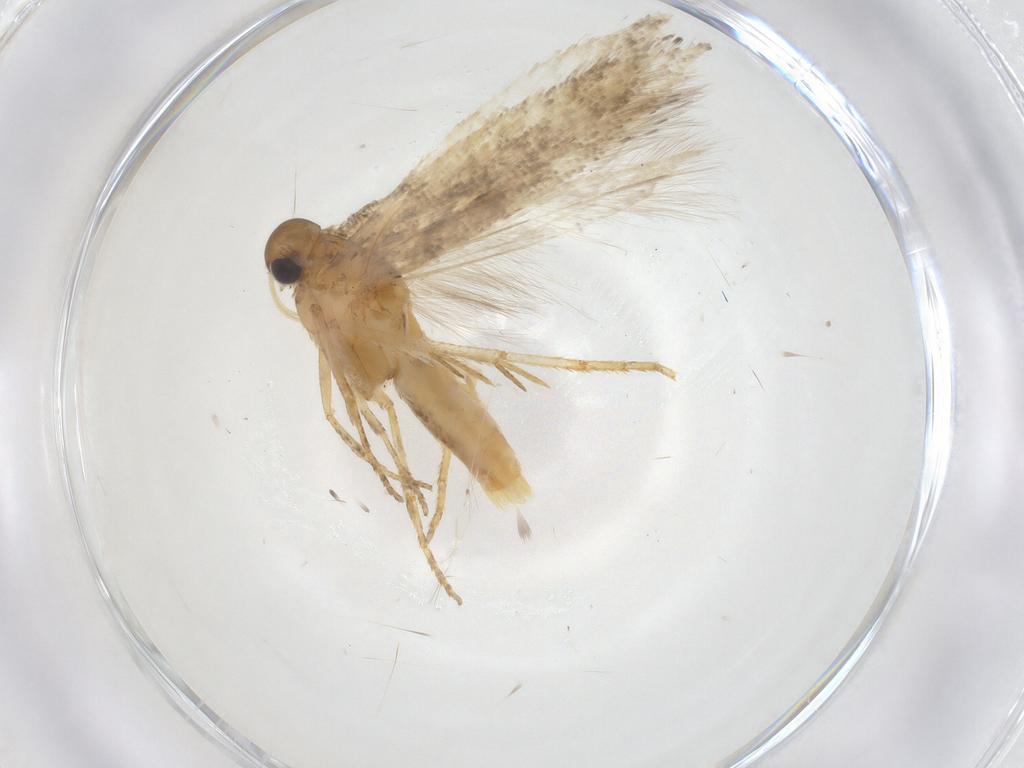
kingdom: Animalia
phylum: Arthropoda
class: Insecta
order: Lepidoptera
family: Gelechiidae
